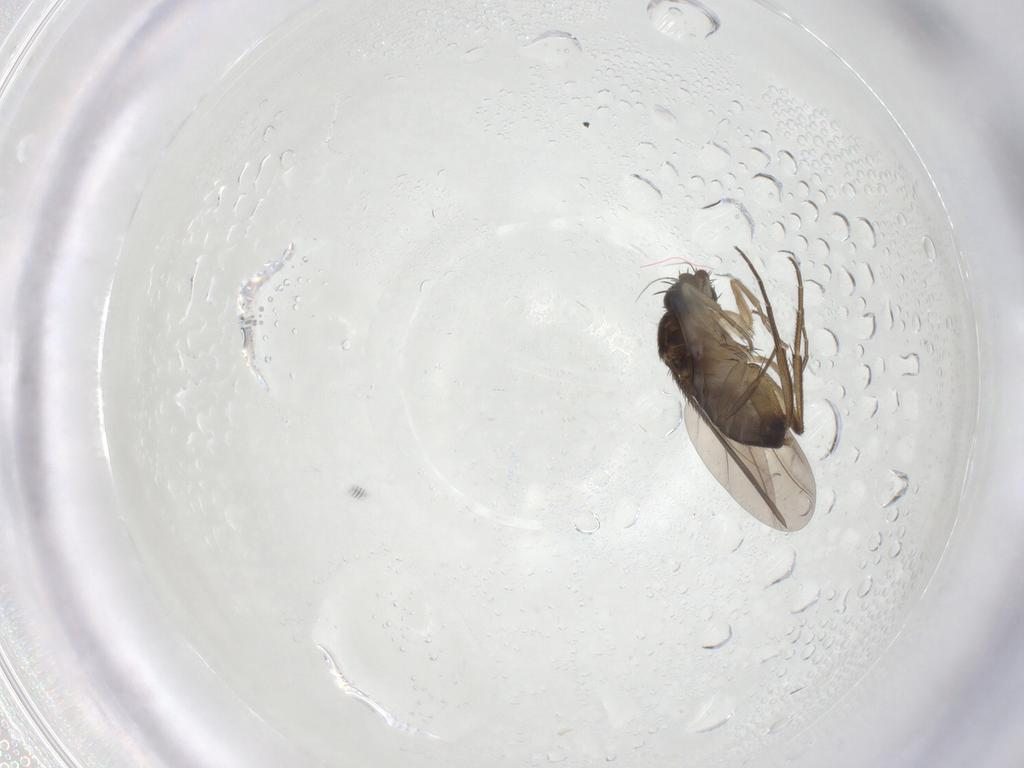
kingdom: Animalia
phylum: Arthropoda
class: Insecta
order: Diptera
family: Phoridae
